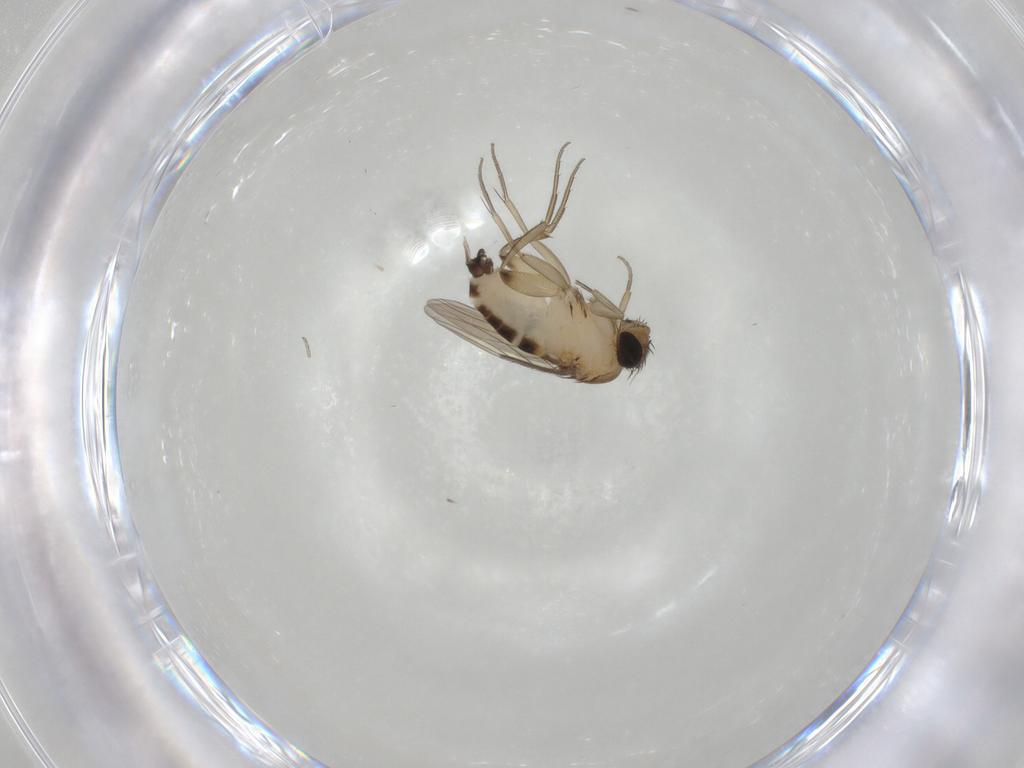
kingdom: Animalia
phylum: Arthropoda
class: Insecta
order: Diptera
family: Phoridae
